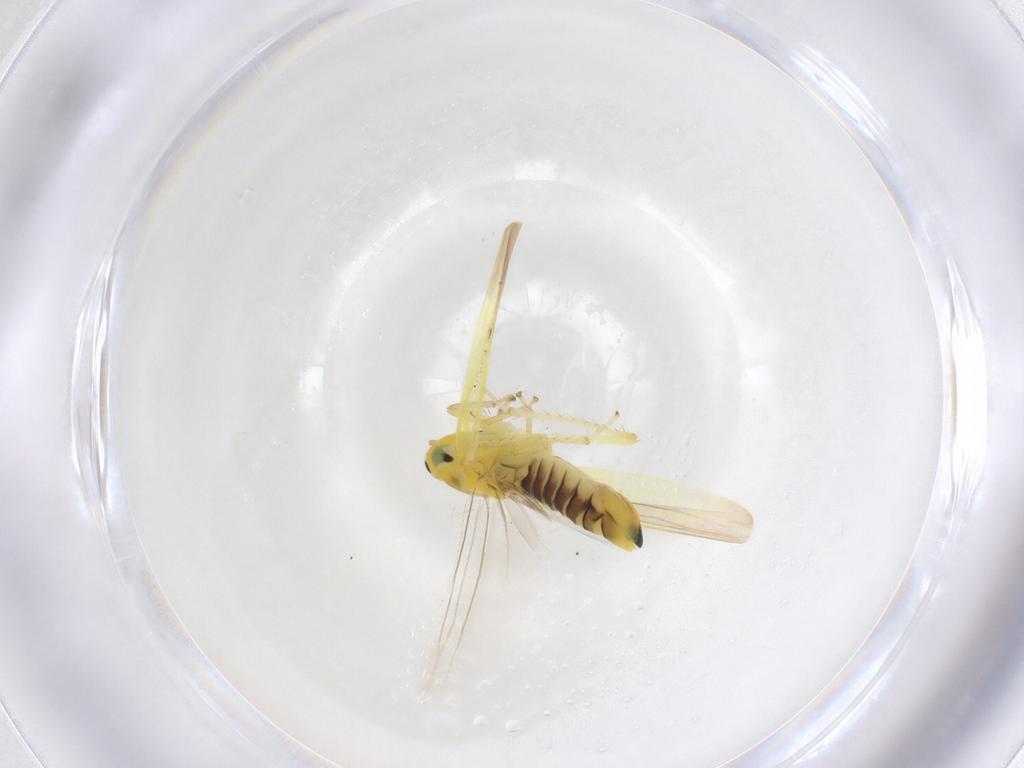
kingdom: Animalia
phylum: Arthropoda
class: Insecta
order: Hemiptera
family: Cicadellidae
